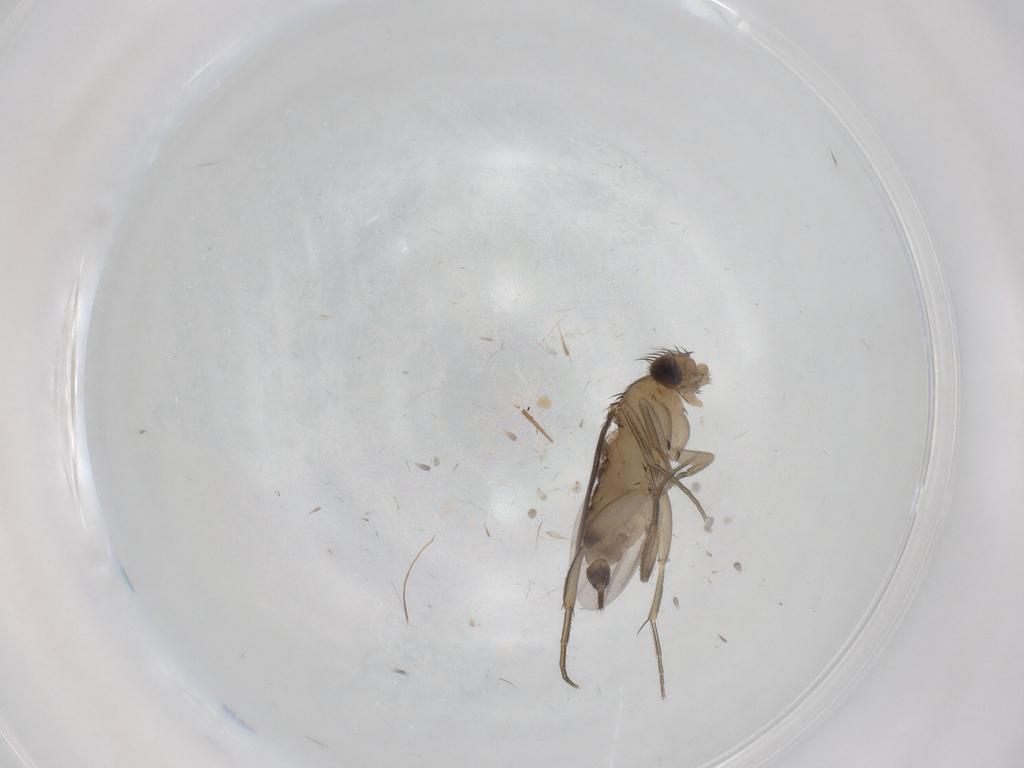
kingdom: Animalia
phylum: Arthropoda
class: Insecta
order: Diptera
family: Phoridae
